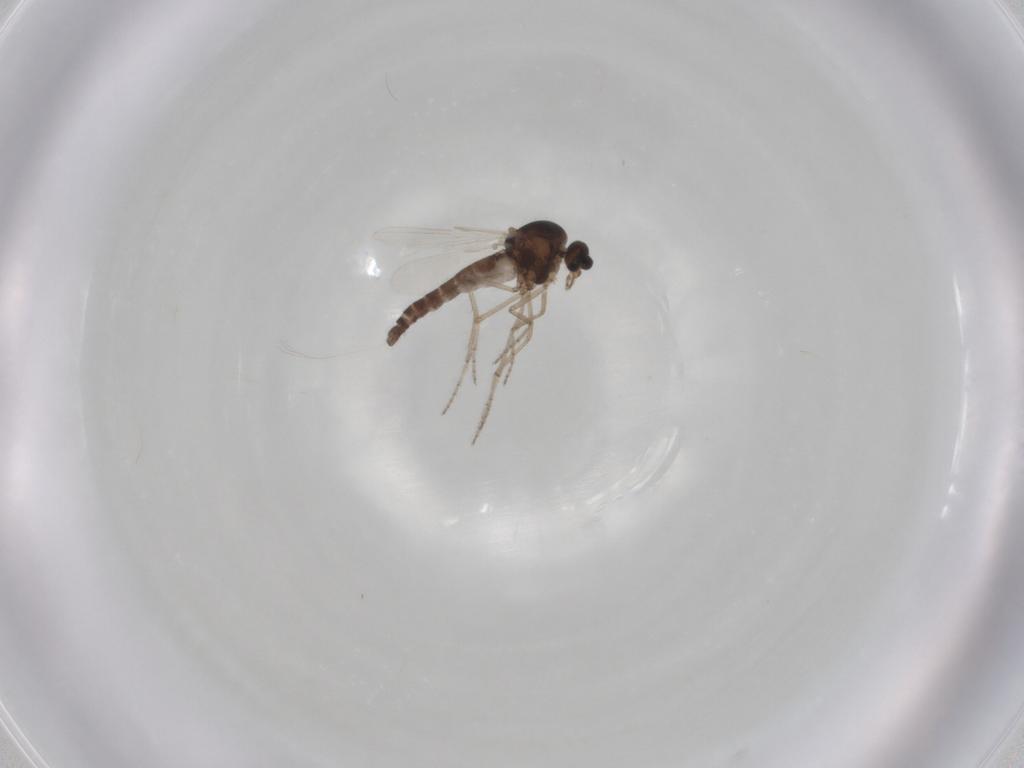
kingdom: Animalia
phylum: Arthropoda
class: Insecta
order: Diptera
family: Ceratopogonidae
